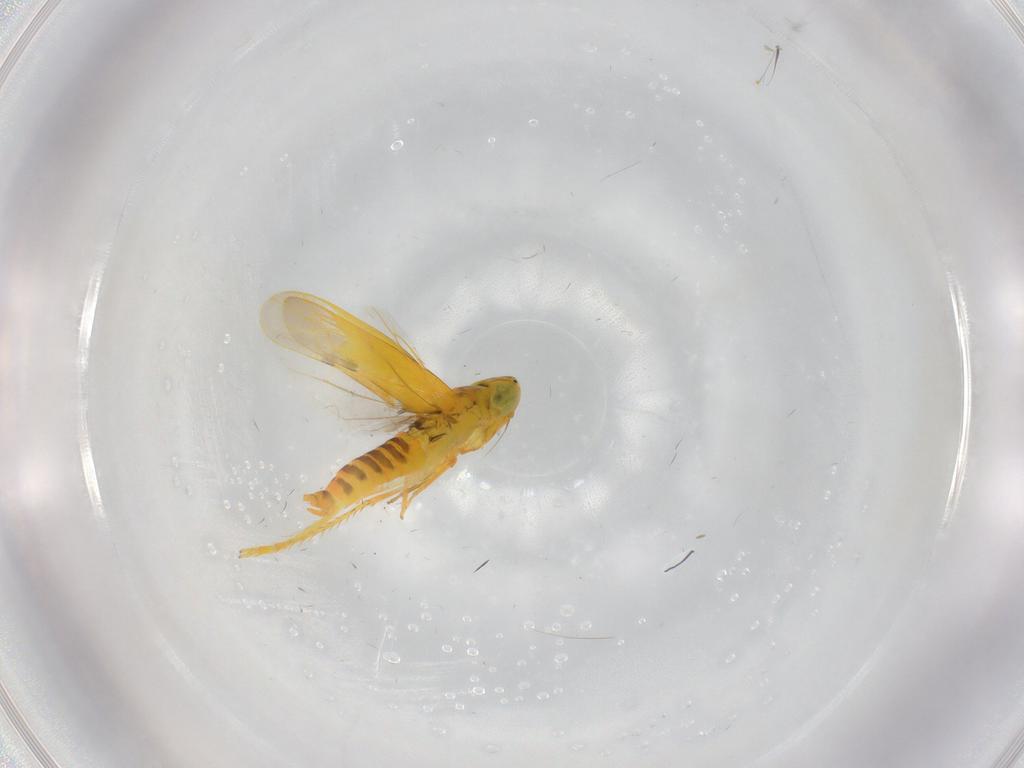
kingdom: Animalia
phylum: Arthropoda
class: Insecta
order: Hemiptera
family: Cicadellidae
